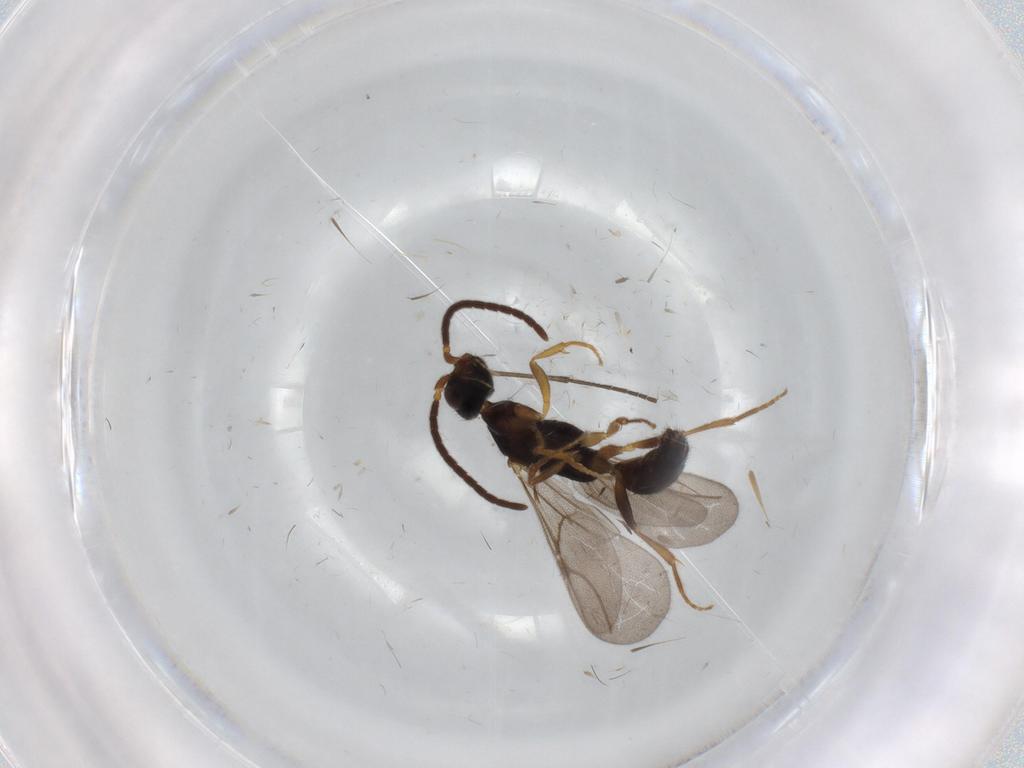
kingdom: Animalia
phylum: Arthropoda
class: Insecta
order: Hymenoptera
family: Bethylidae
